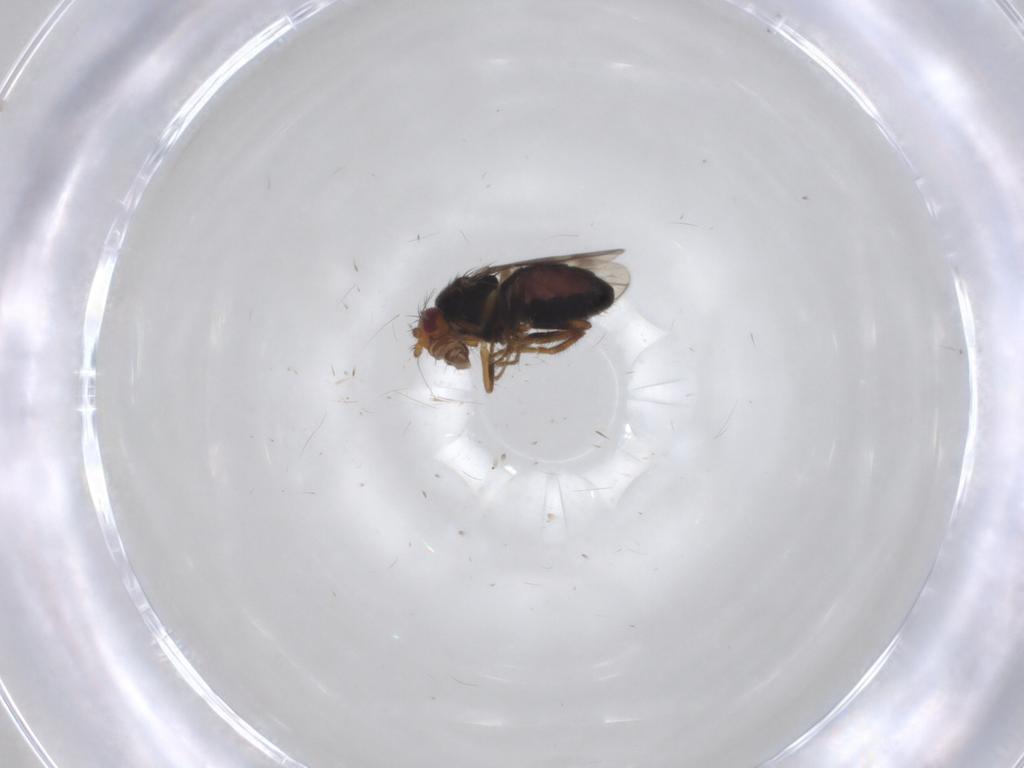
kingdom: Animalia
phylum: Arthropoda
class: Insecta
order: Diptera
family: Sphaeroceridae
